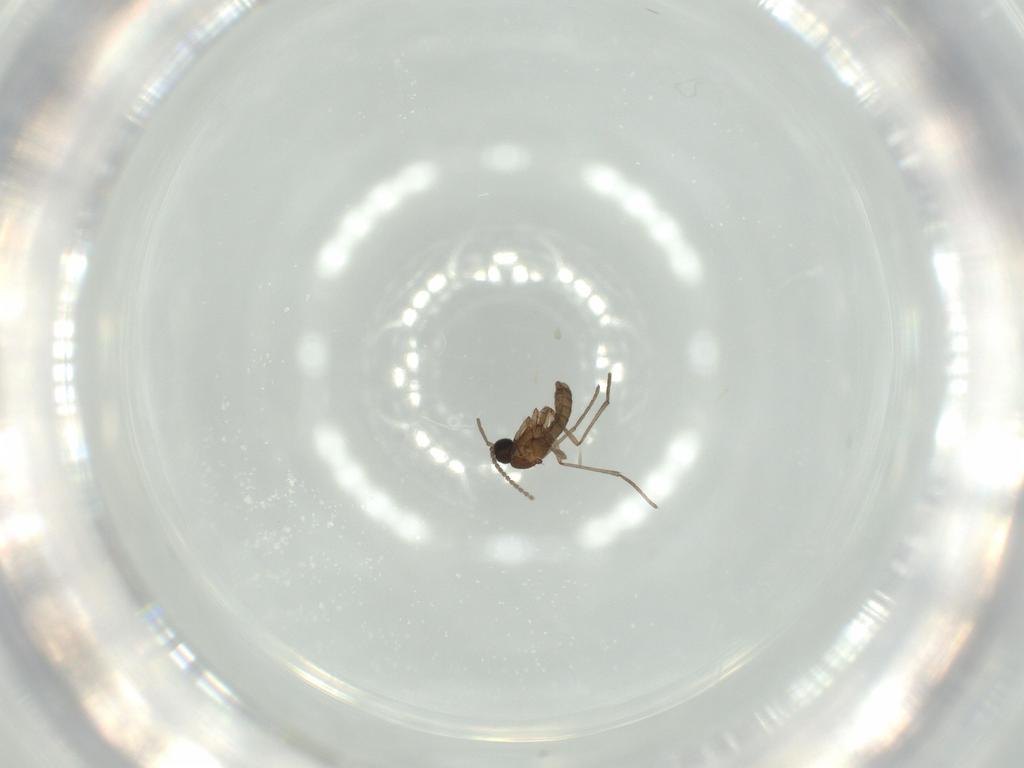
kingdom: Animalia
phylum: Arthropoda
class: Insecta
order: Diptera
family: Sciaridae
